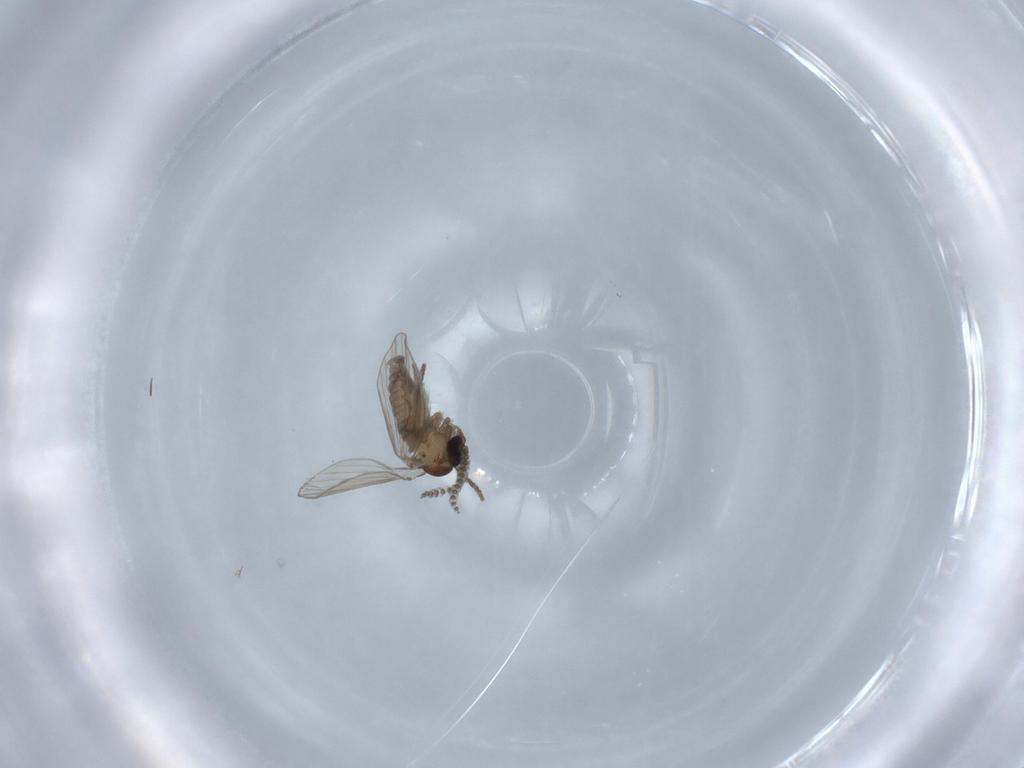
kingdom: Animalia
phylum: Arthropoda
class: Insecta
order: Diptera
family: Psychodidae
